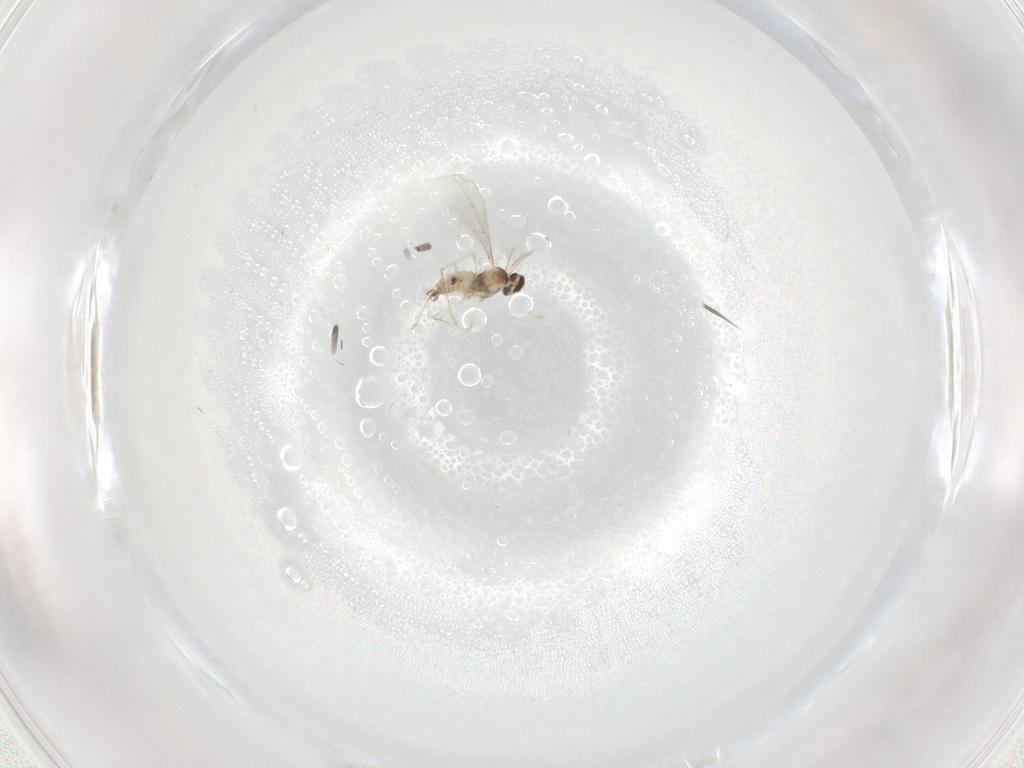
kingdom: Animalia
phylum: Arthropoda
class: Insecta
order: Diptera
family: Cecidomyiidae
